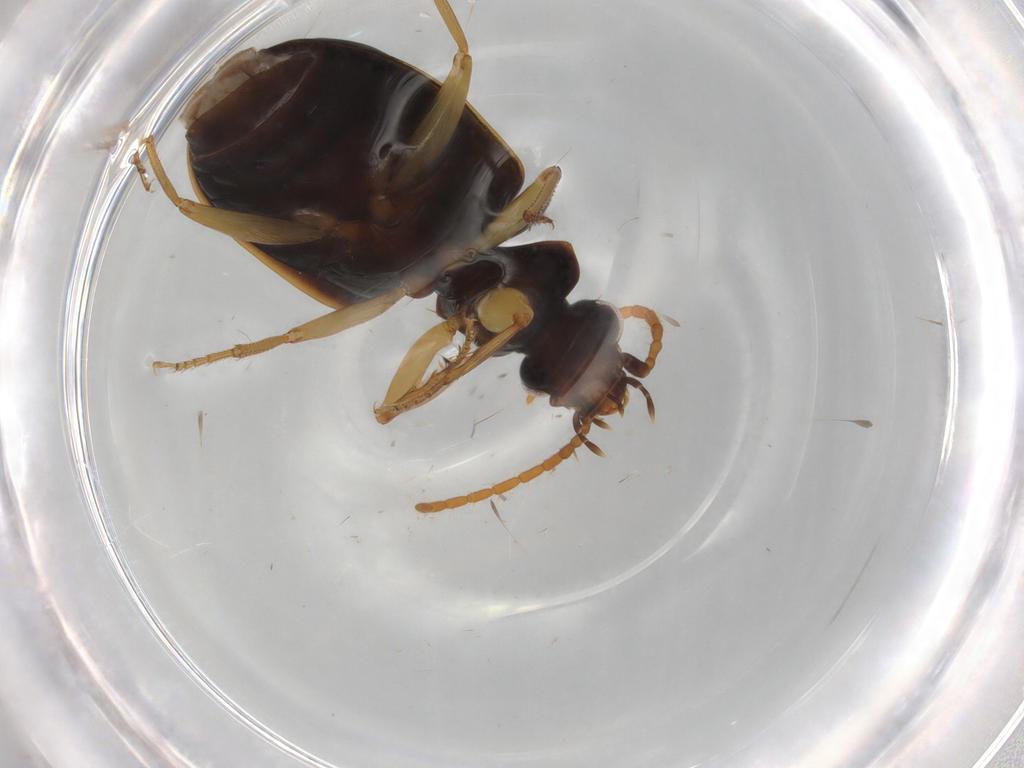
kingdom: Animalia
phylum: Arthropoda
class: Insecta
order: Coleoptera
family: Carabidae
